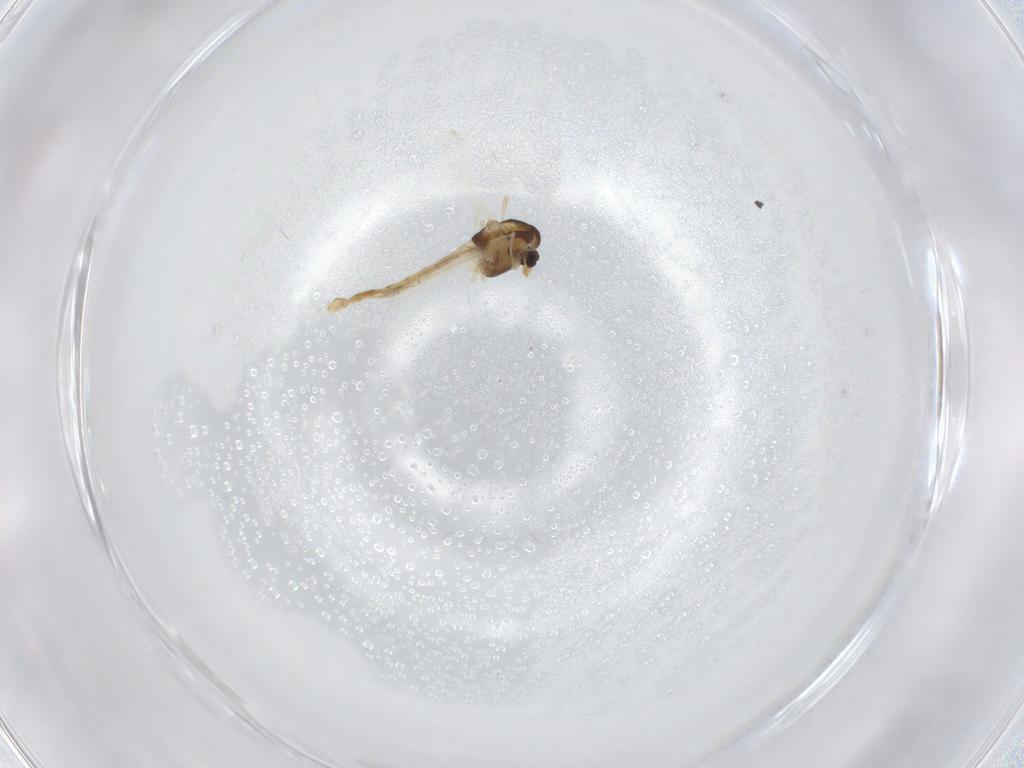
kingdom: Animalia
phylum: Arthropoda
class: Insecta
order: Diptera
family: Chironomidae
